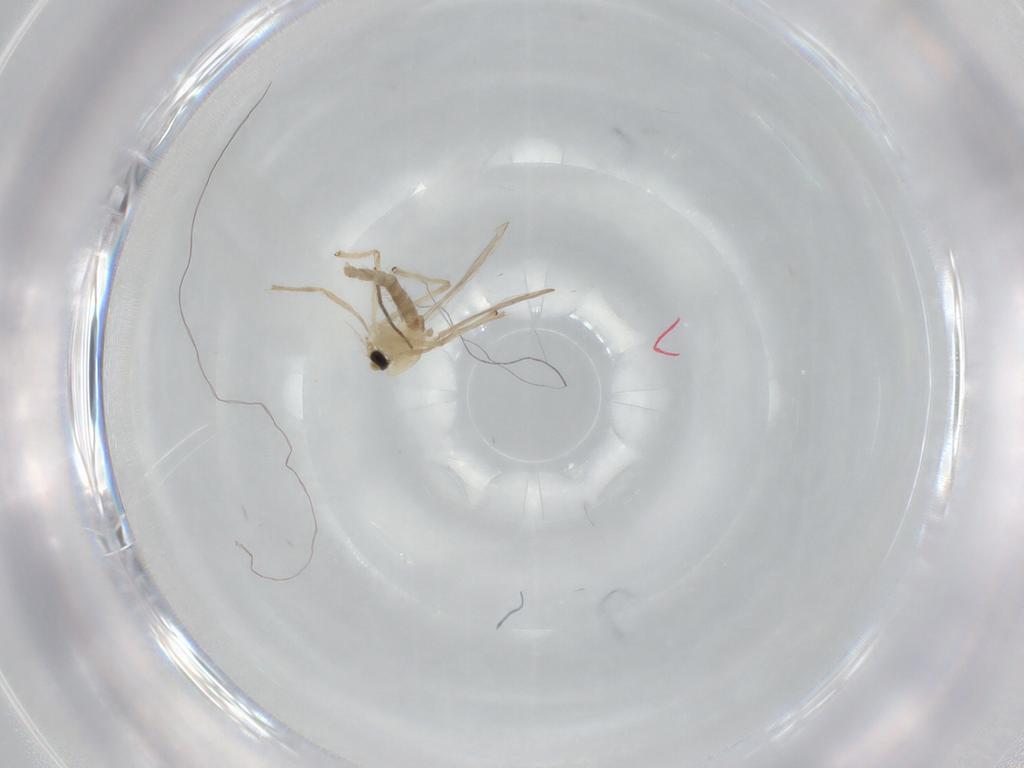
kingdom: Animalia
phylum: Arthropoda
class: Insecta
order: Diptera
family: Chironomidae
